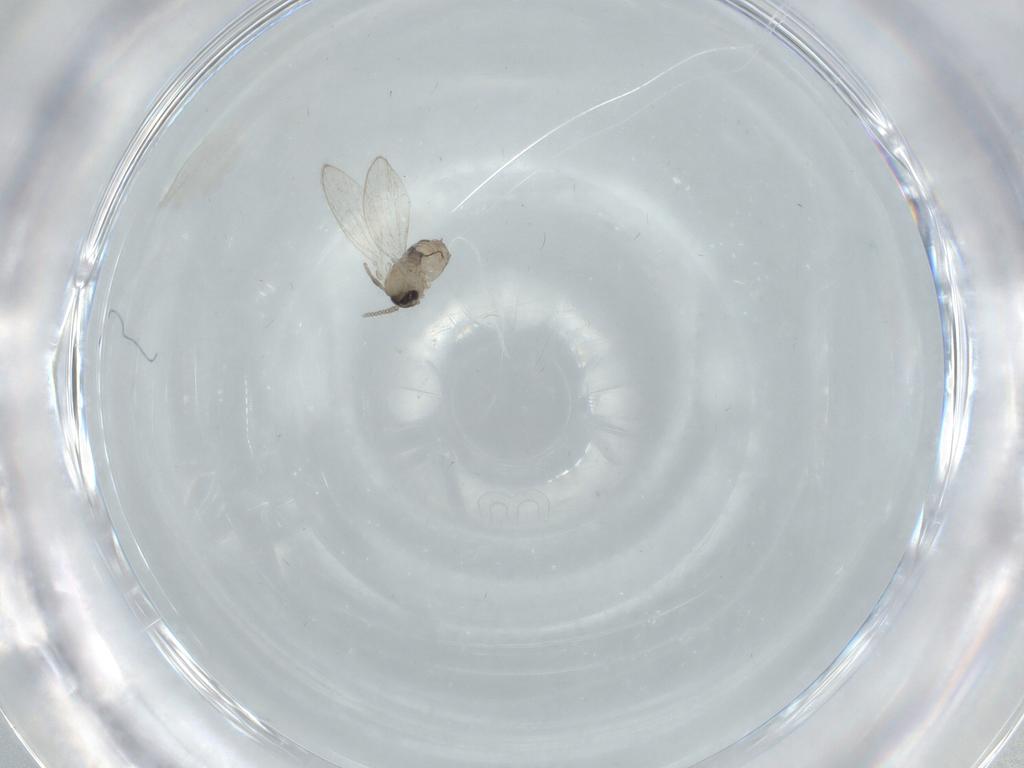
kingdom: Animalia
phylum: Arthropoda
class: Insecta
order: Diptera
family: Psychodidae
